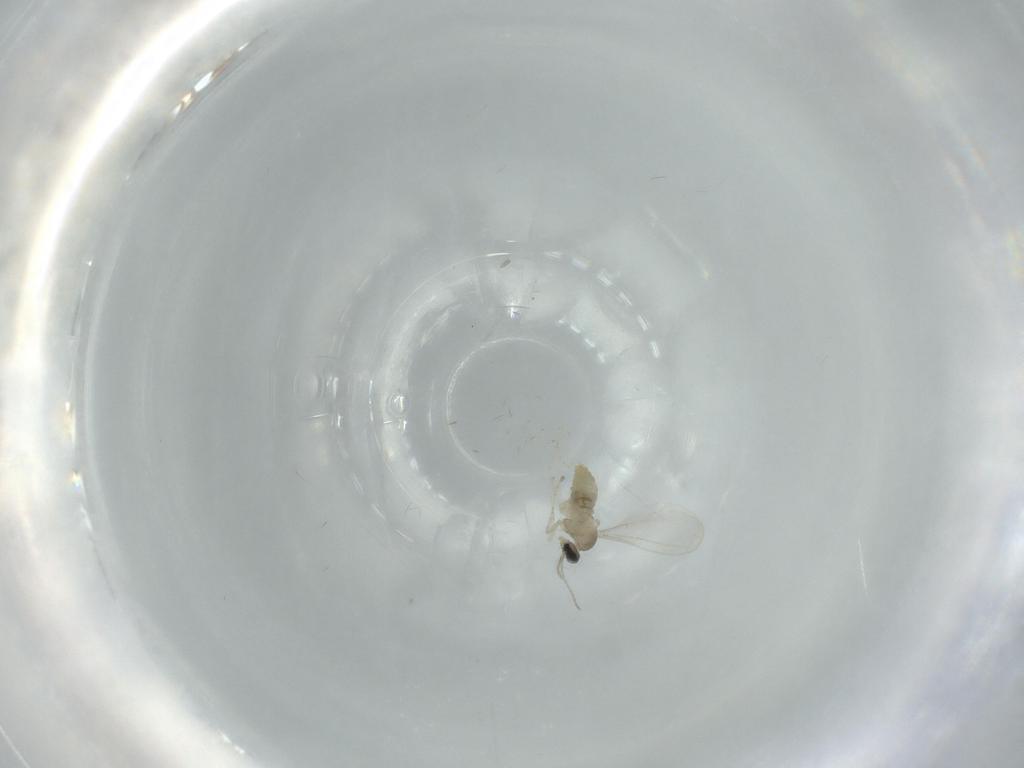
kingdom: Animalia
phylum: Arthropoda
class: Insecta
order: Diptera
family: Cecidomyiidae
